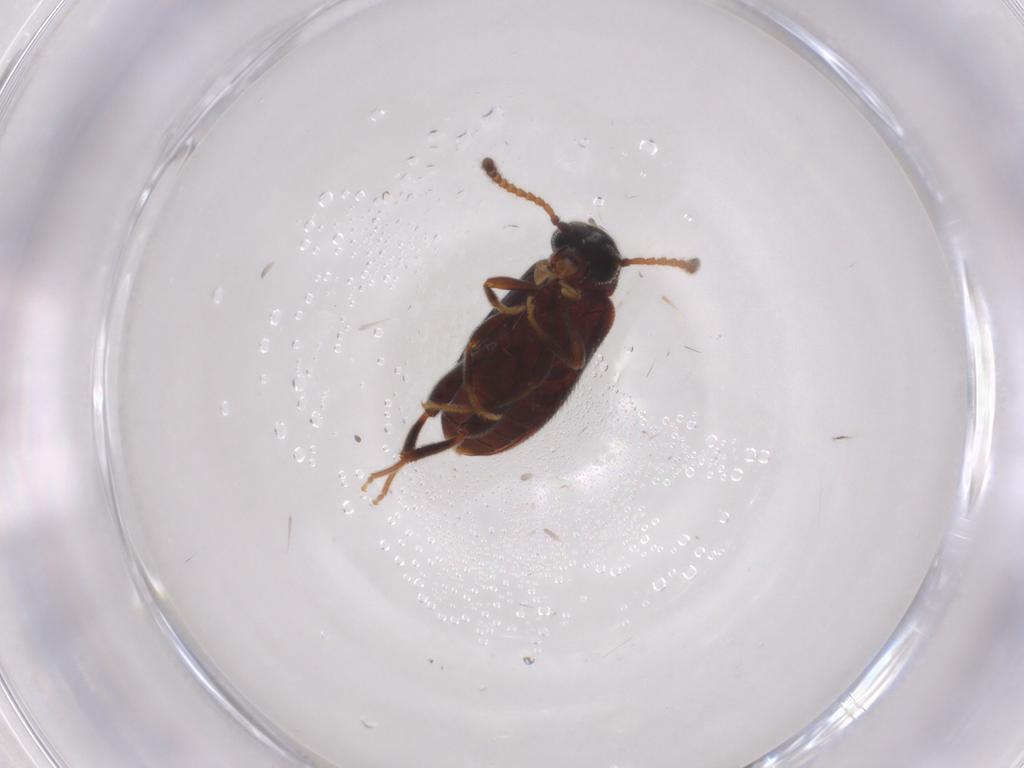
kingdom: Animalia
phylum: Arthropoda
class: Insecta
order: Coleoptera
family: Aderidae
